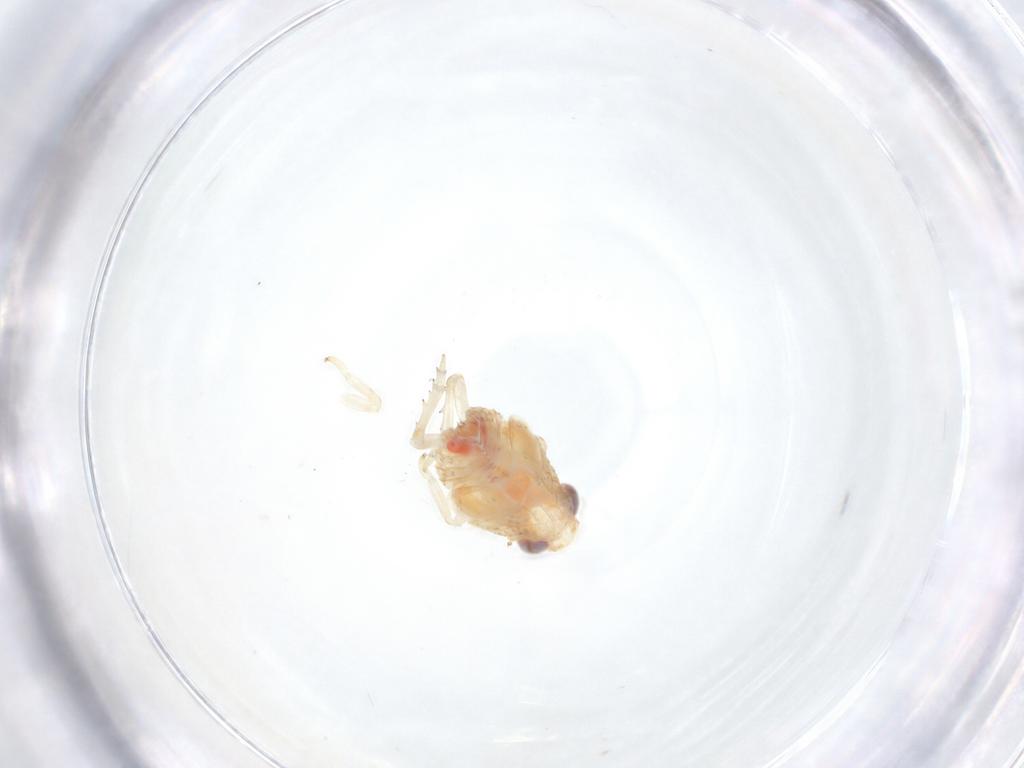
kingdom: Animalia
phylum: Arthropoda
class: Insecta
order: Hemiptera
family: Issidae
